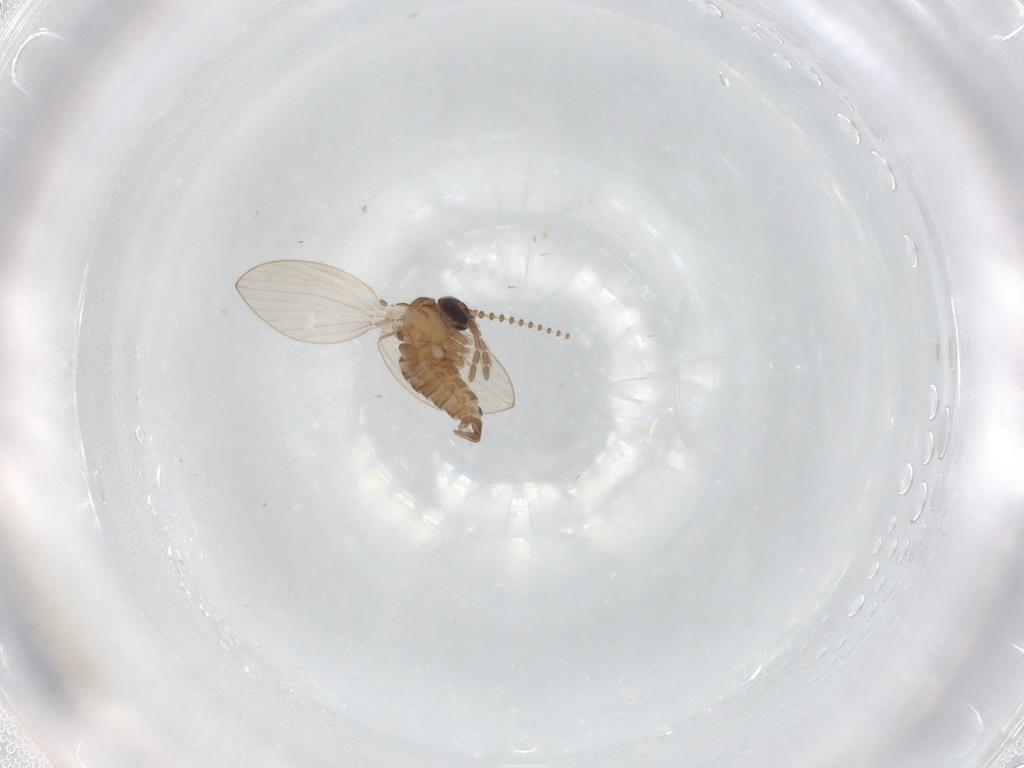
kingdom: Animalia
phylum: Arthropoda
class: Insecta
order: Diptera
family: Psychodidae
